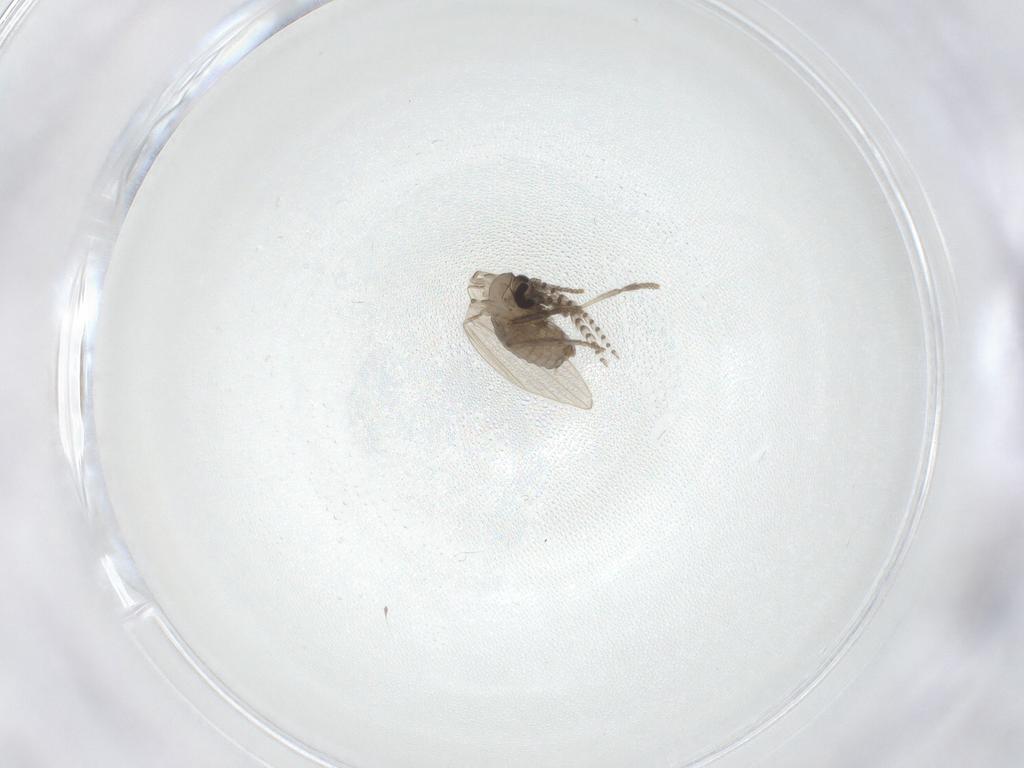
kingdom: Animalia
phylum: Arthropoda
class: Insecta
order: Diptera
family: Cecidomyiidae
